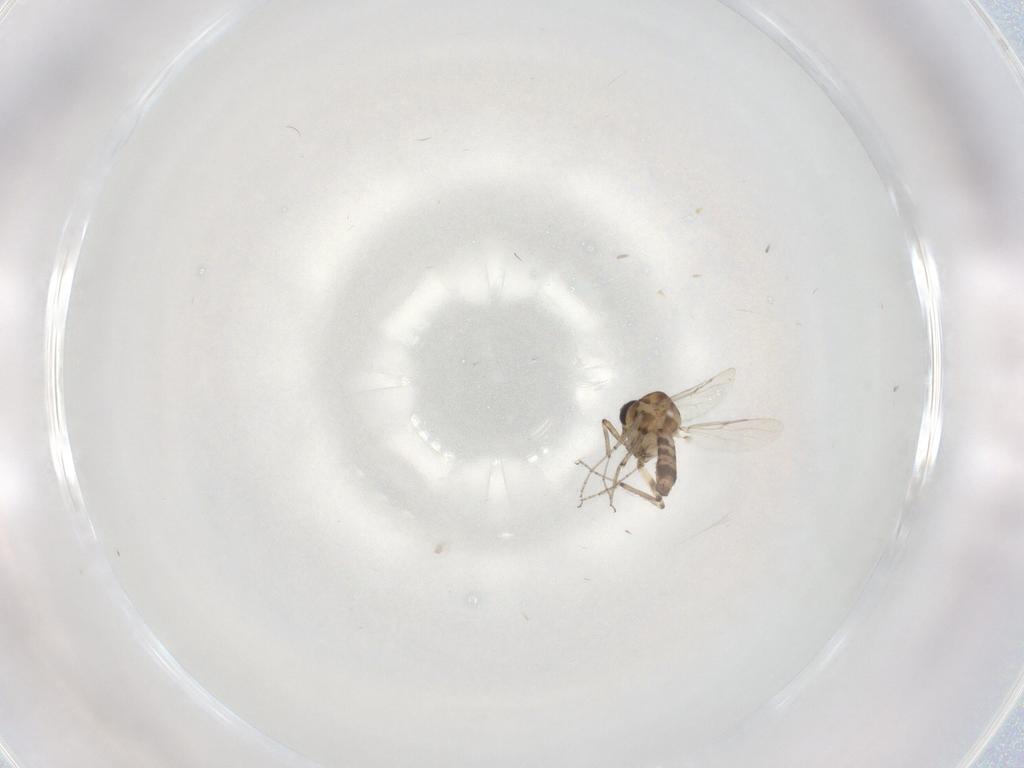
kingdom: Animalia
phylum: Arthropoda
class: Insecta
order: Diptera
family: Ceratopogonidae
